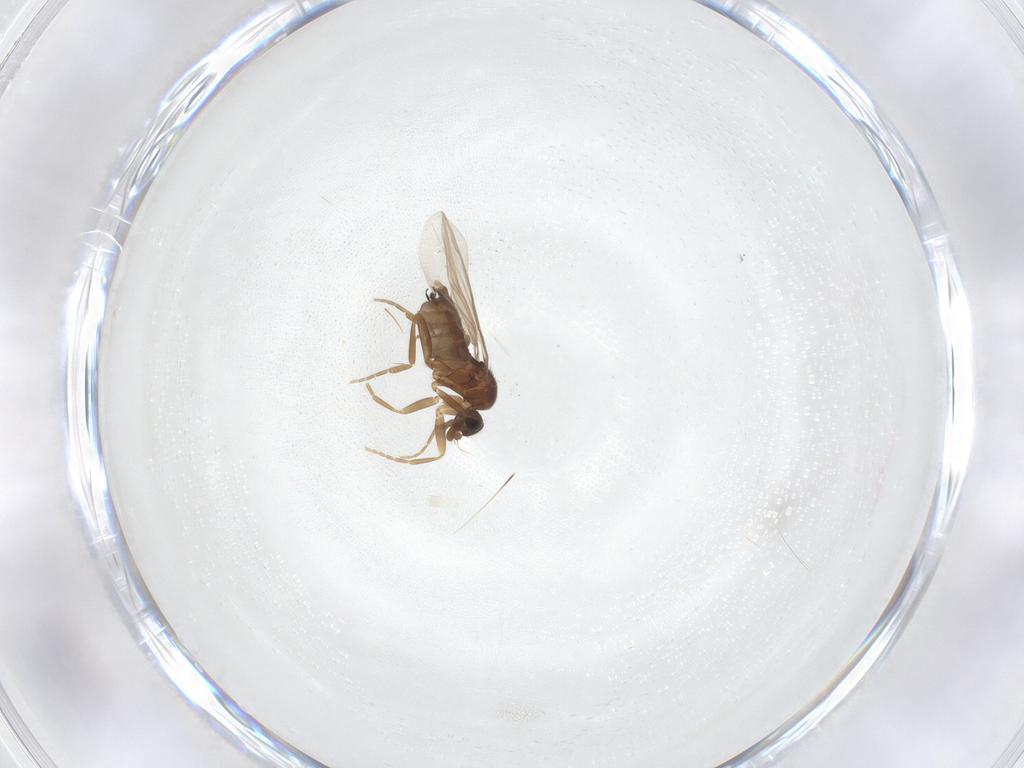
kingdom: Animalia
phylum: Arthropoda
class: Insecta
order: Diptera
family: Phoridae
